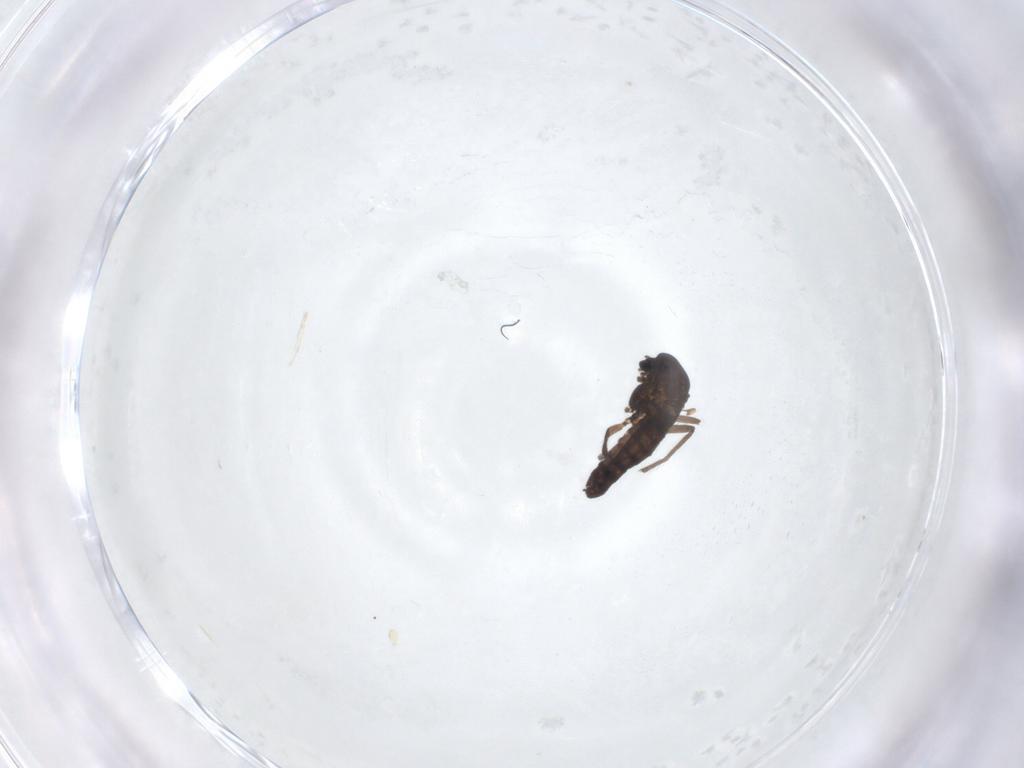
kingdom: Animalia
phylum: Arthropoda
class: Insecta
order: Diptera
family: Chironomidae
